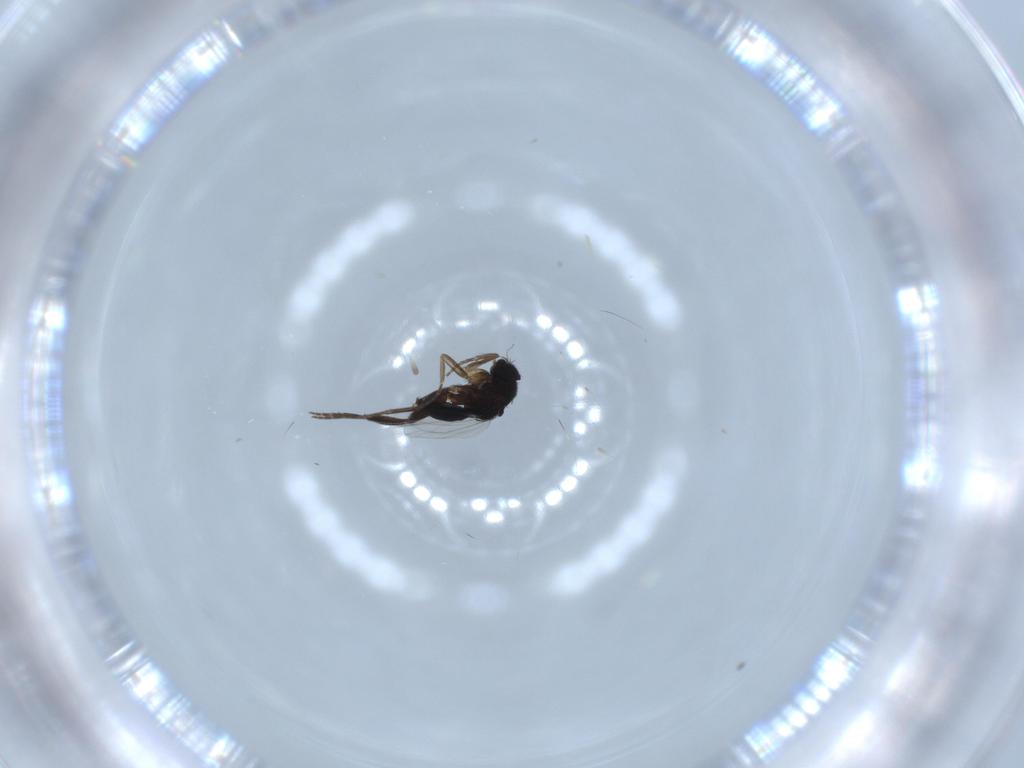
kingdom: Animalia
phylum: Arthropoda
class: Insecta
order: Diptera
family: Phoridae
